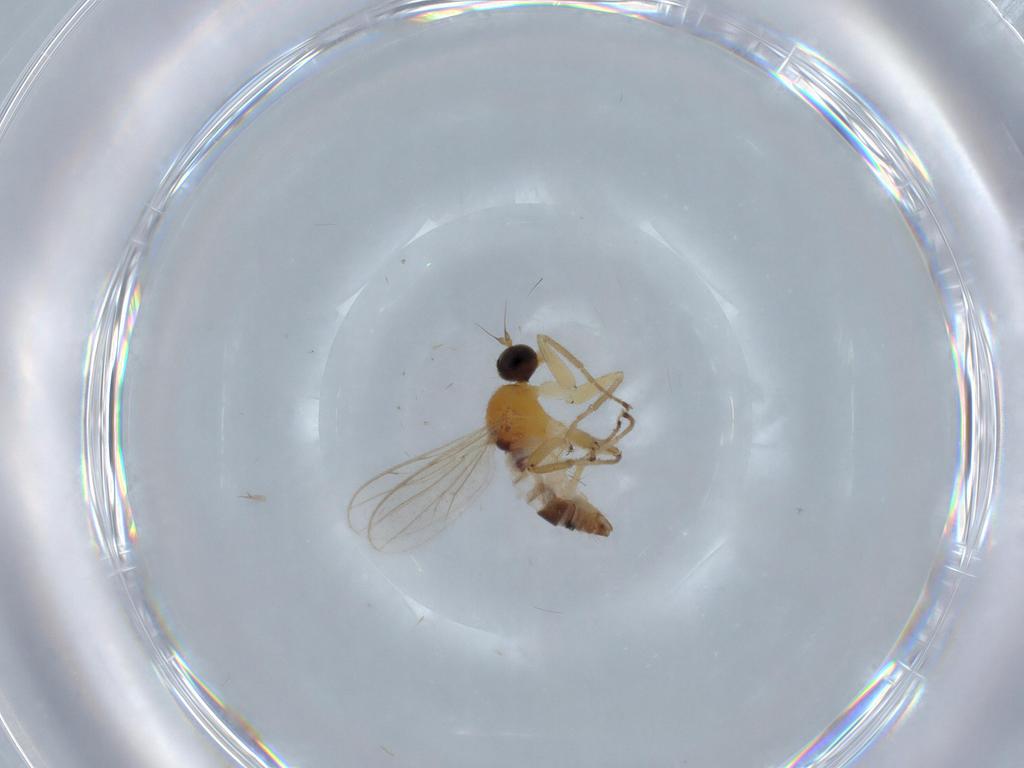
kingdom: Animalia
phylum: Arthropoda
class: Insecta
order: Diptera
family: Hybotidae
